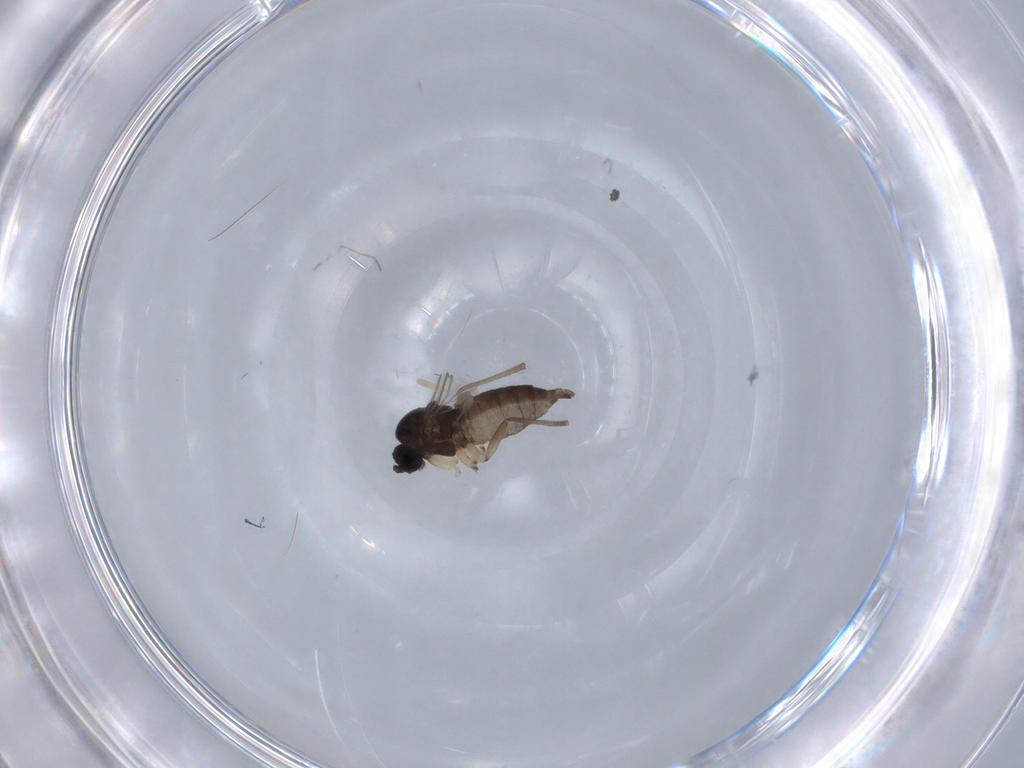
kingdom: Animalia
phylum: Arthropoda
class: Insecta
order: Diptera
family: Sciaridae
